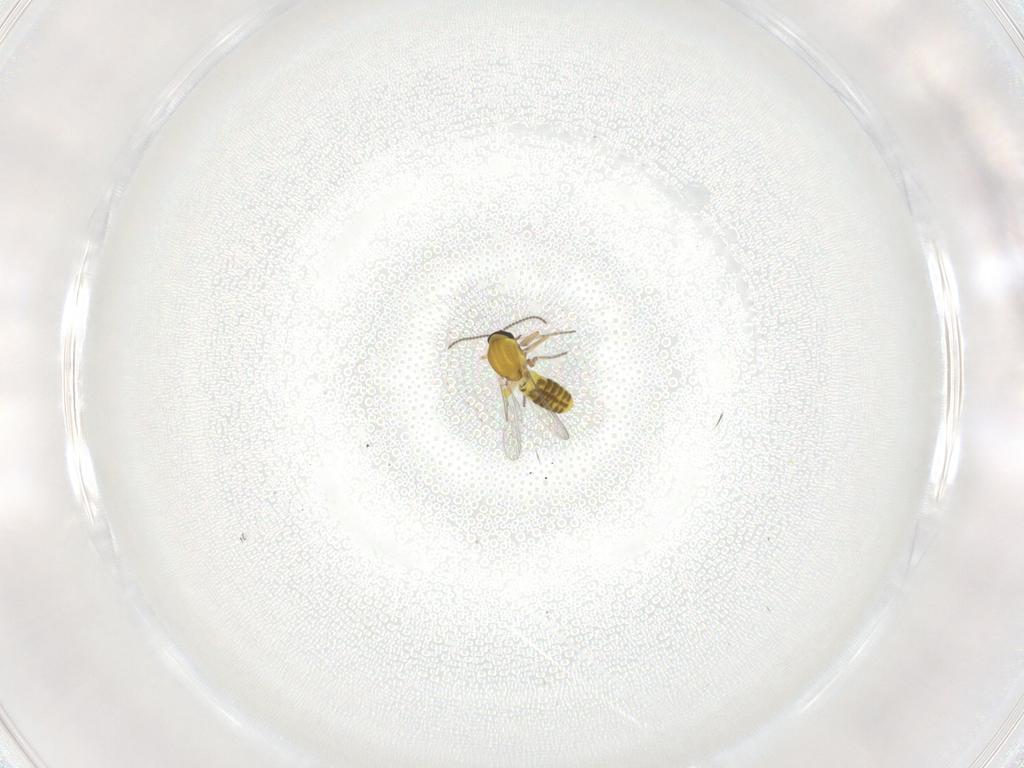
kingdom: Animalia
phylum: Arthropoda
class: Insecta
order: Diptera
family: Ceratopogonidae
